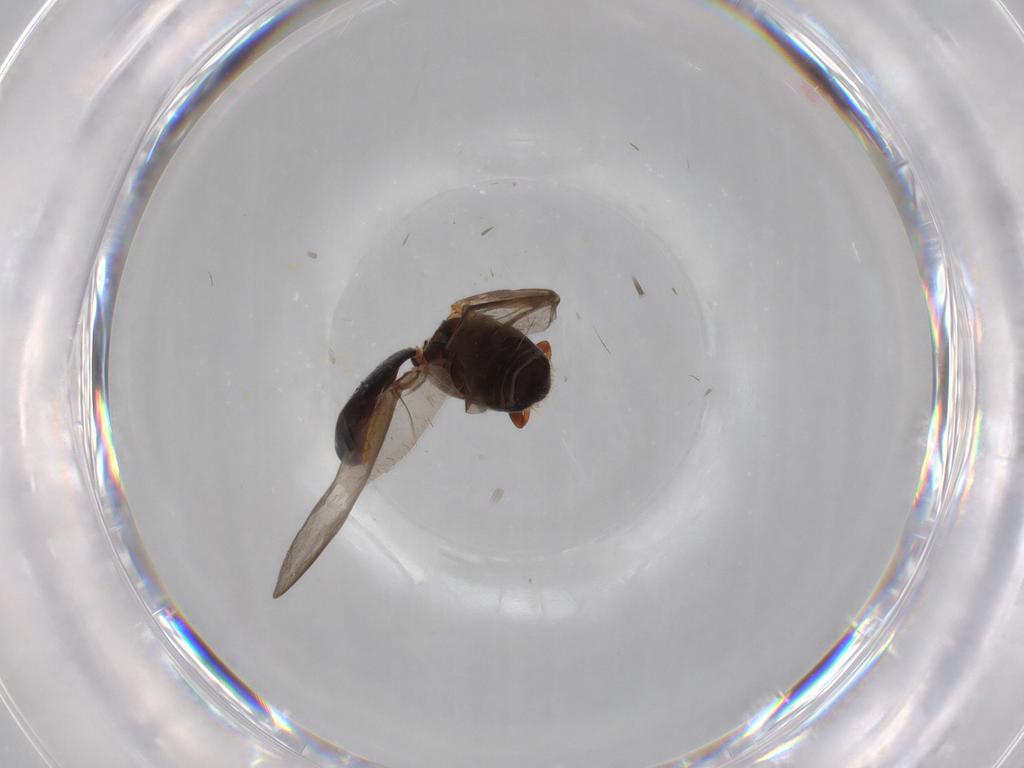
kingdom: Animalia
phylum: Arthropoda
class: Insecta
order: Coleoptera
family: Curculionidae
